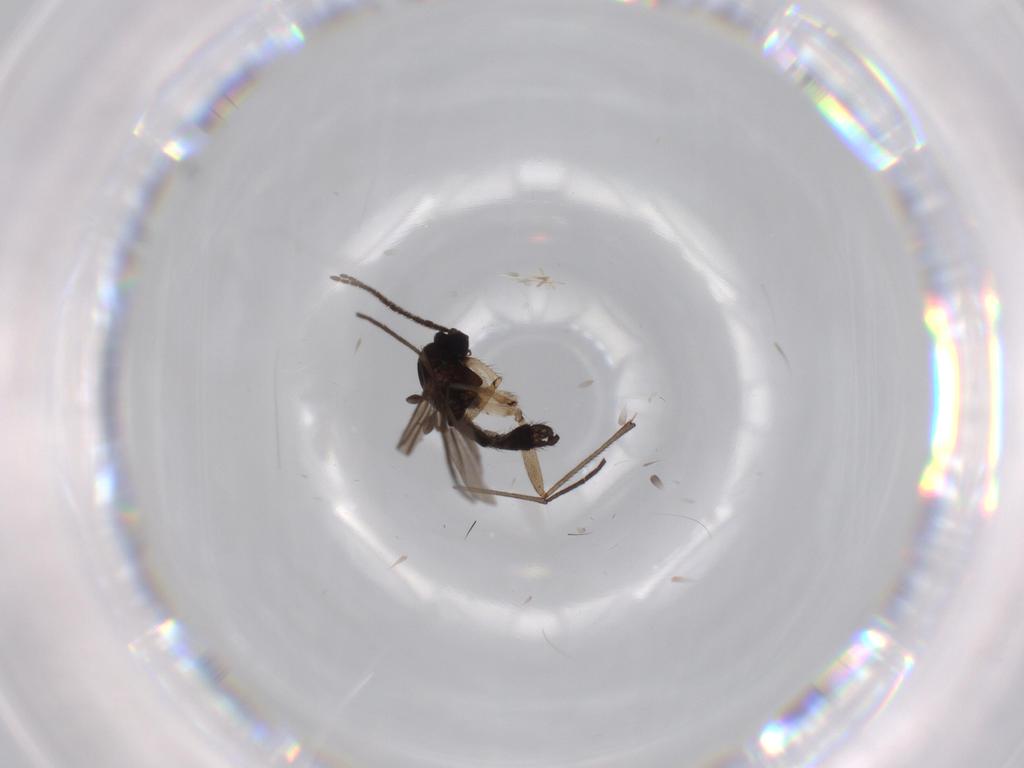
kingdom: Animalia
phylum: Arthropoda
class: Insecta
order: Diptera
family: Sciaridae
